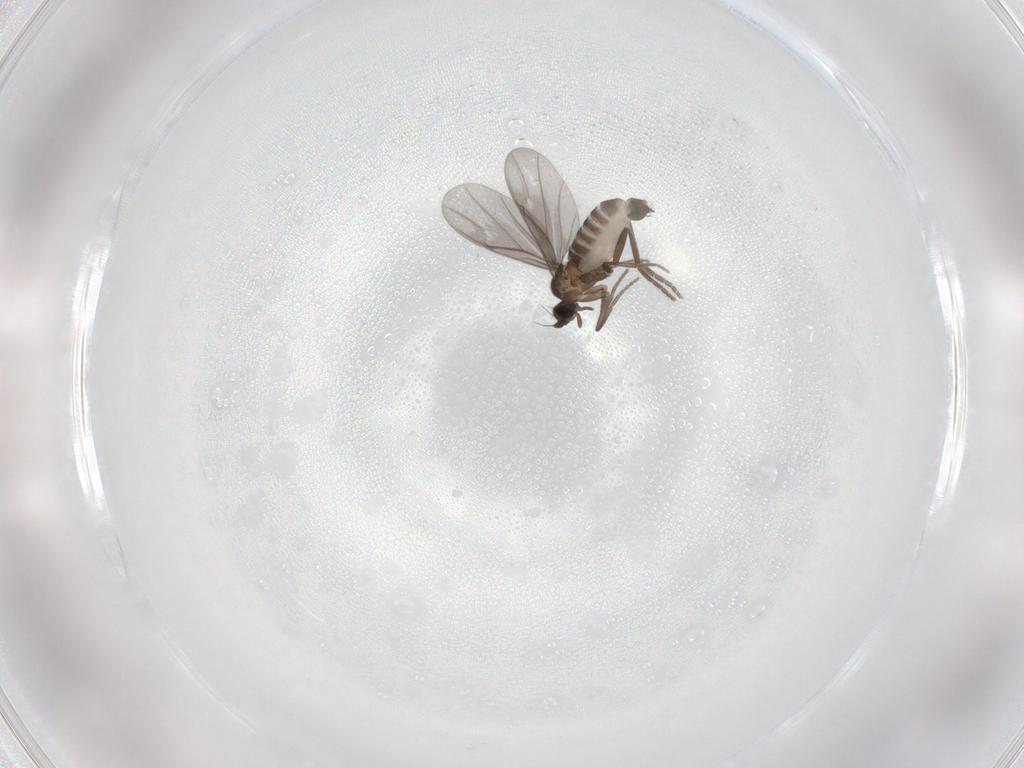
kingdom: Animalia
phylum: Arthropoda
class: Insecta
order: Diptera
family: Phoridae
